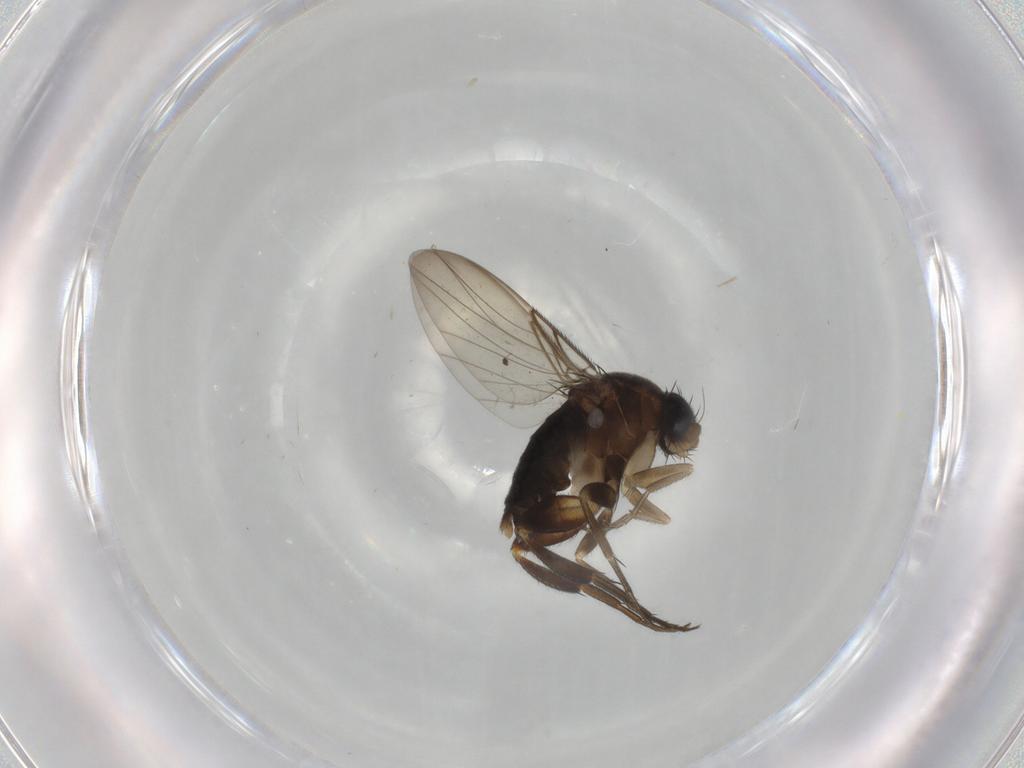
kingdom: Animalia
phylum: Arthropoda
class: Insecta
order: Diptera
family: Phoridae
